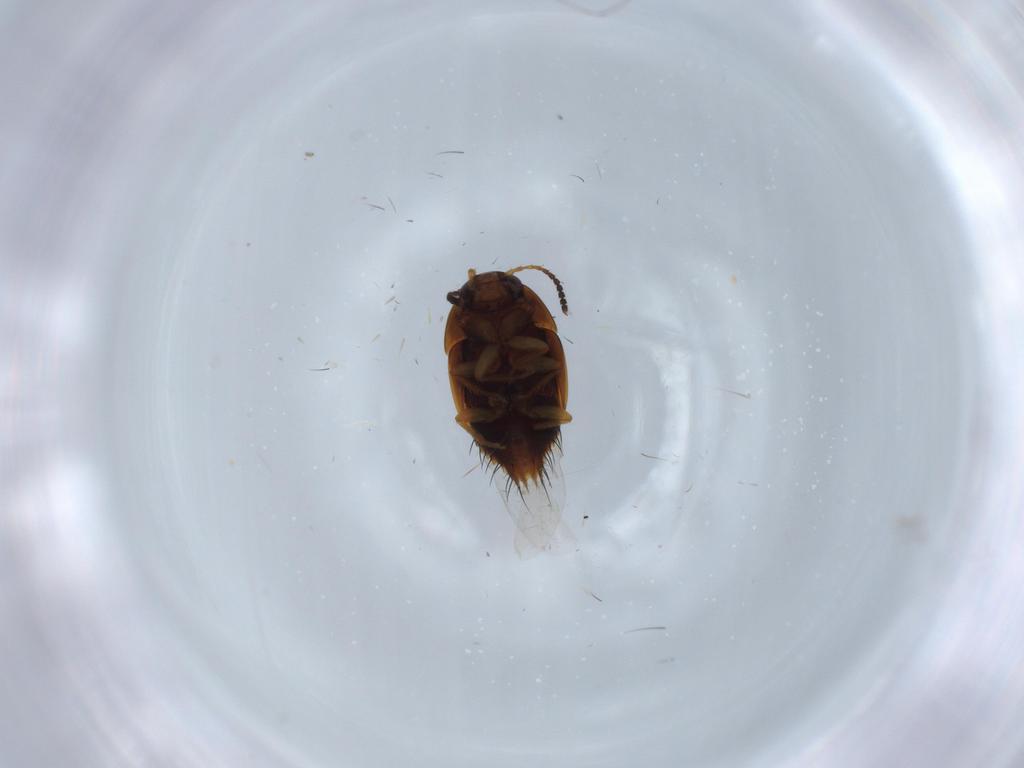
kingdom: Animalia
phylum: Arthropoda
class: Insecta
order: Coleoptera
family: Staphylinidae
